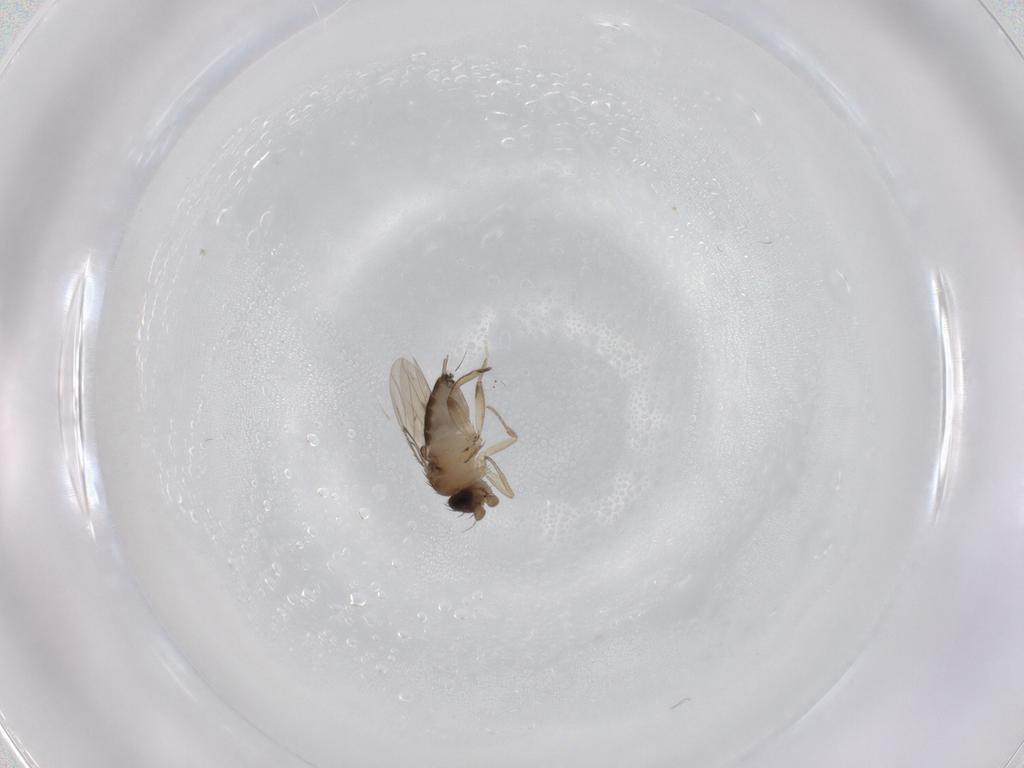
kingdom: Animalia
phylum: Arthropoda
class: Insecta
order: Diptera
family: Phoridae
